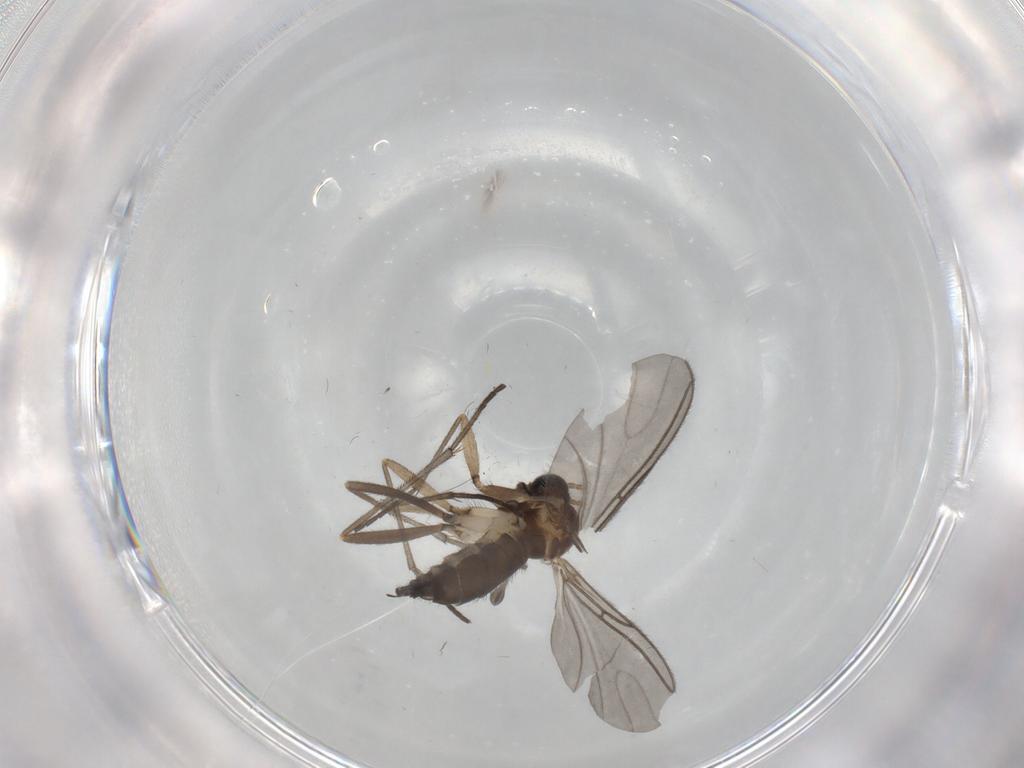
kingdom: Animalia
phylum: Arthropoda
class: Insecta
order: Diptera
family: Sciaridae
